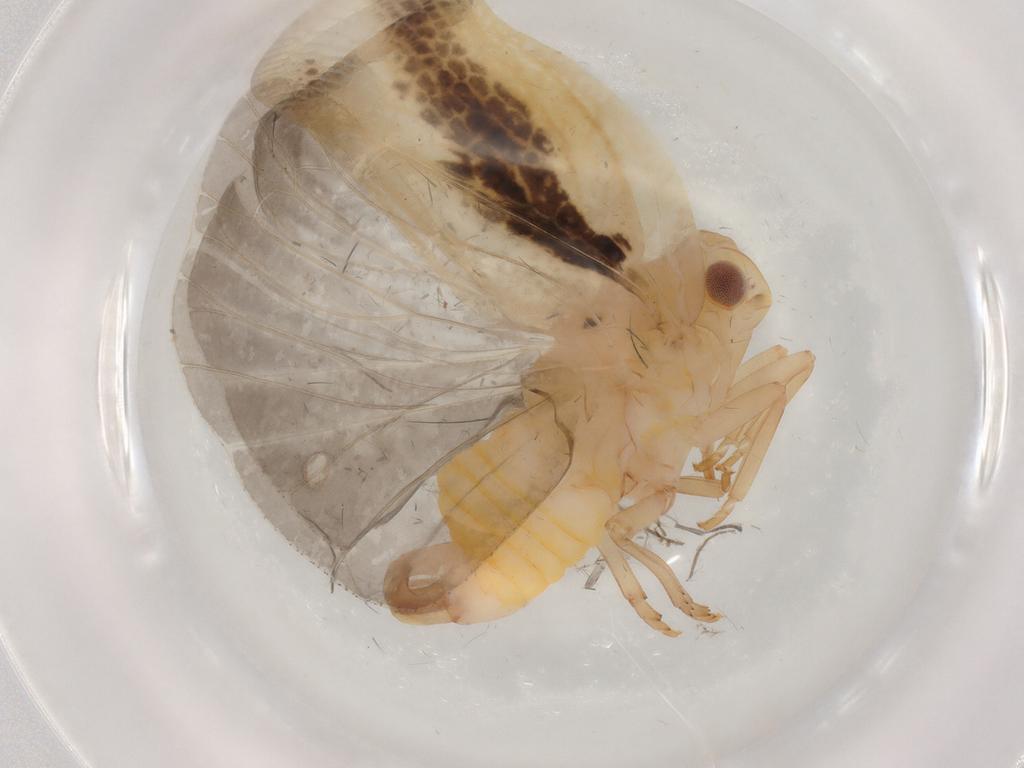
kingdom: Animalia
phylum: Arthropoda
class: Insecta
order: Hemiptera
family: Flatidae
